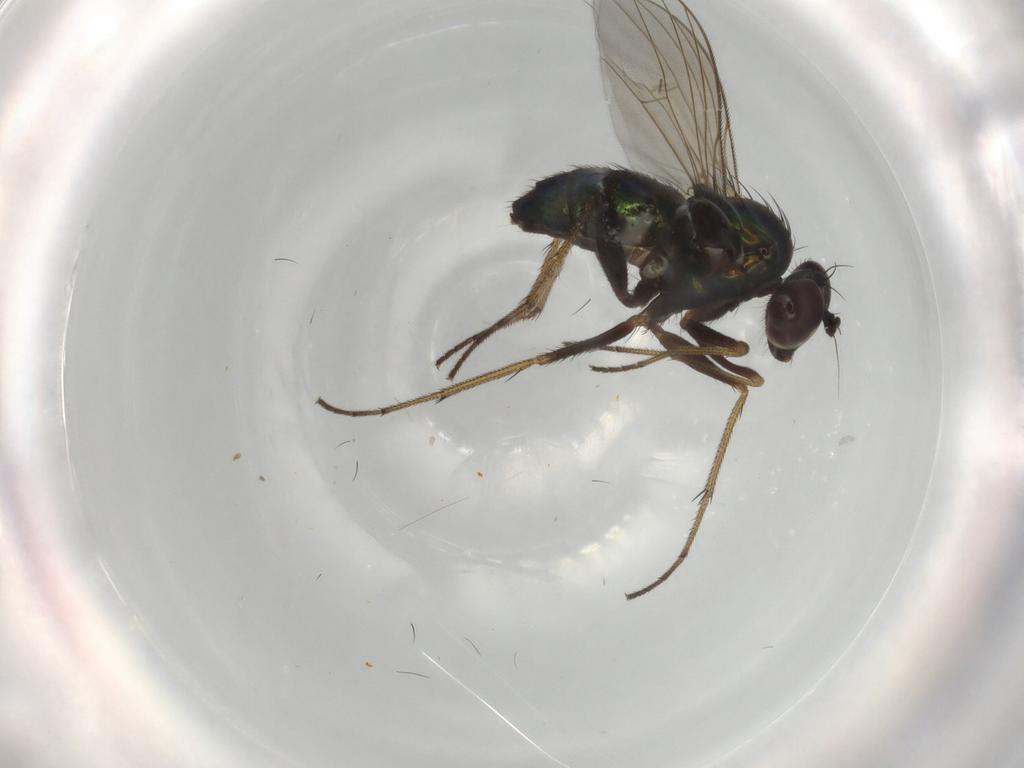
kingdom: Animalia
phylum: Arthropoda
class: Insecta
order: Diptera
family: Dolichopodidae
